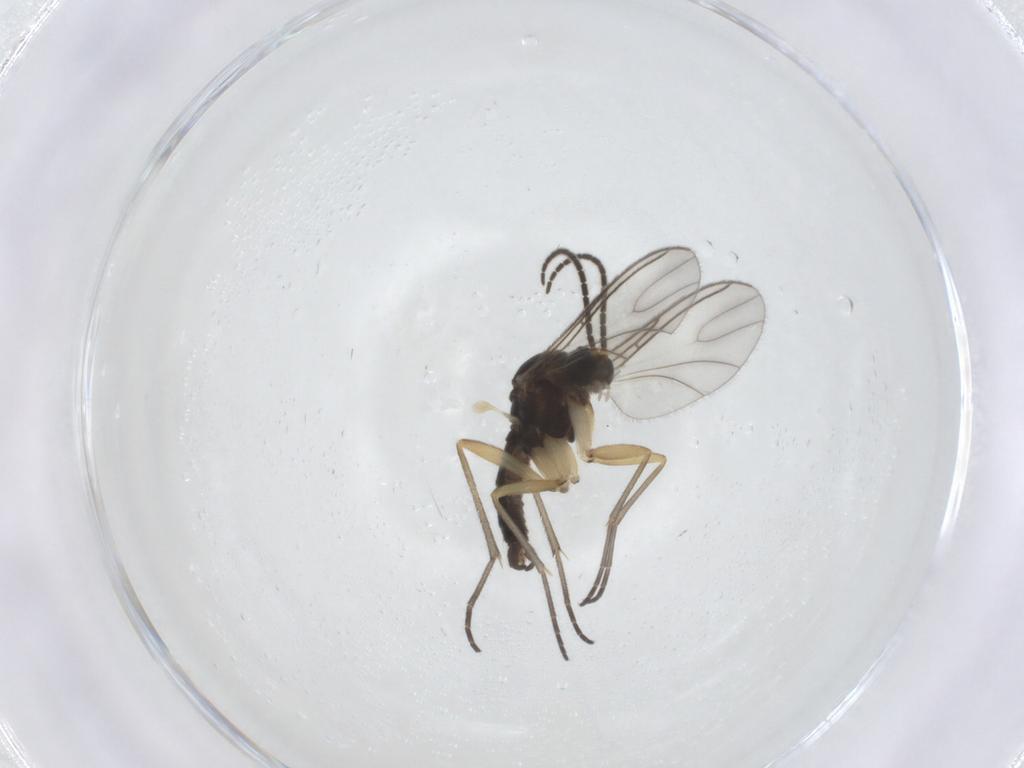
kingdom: Animalia
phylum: Arthropoda
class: Insecta
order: Diptera
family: Sciaridae
